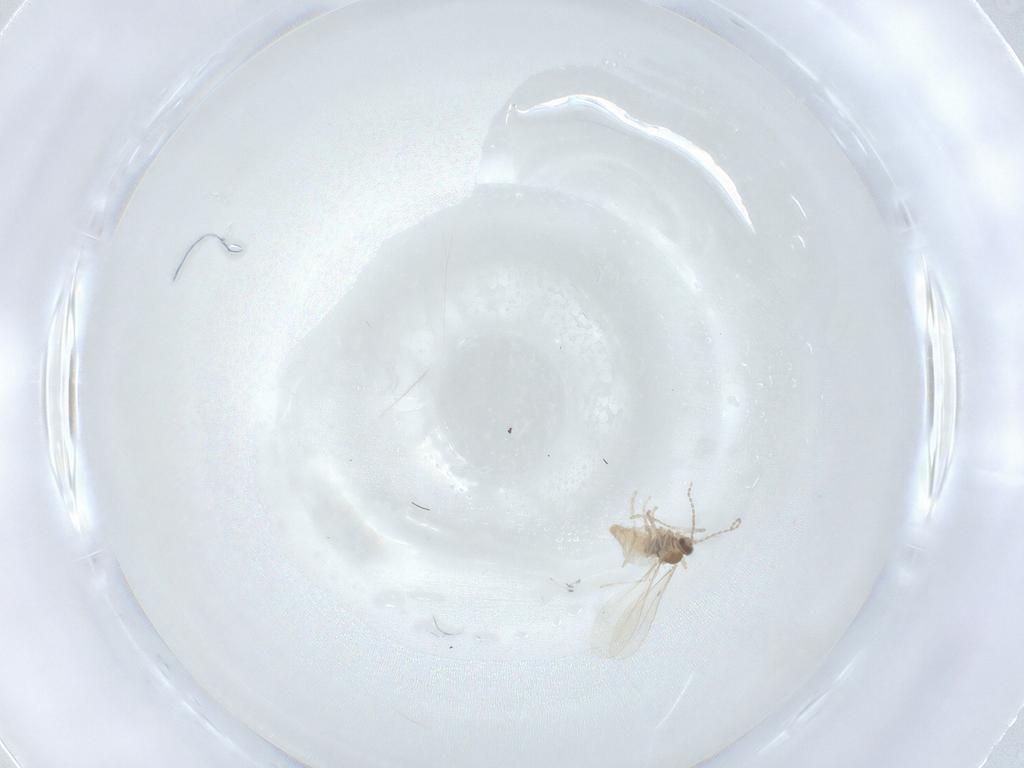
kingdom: Animalia
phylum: Arthropoda
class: Insecta
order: Diptera
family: Cecidomyiidae
